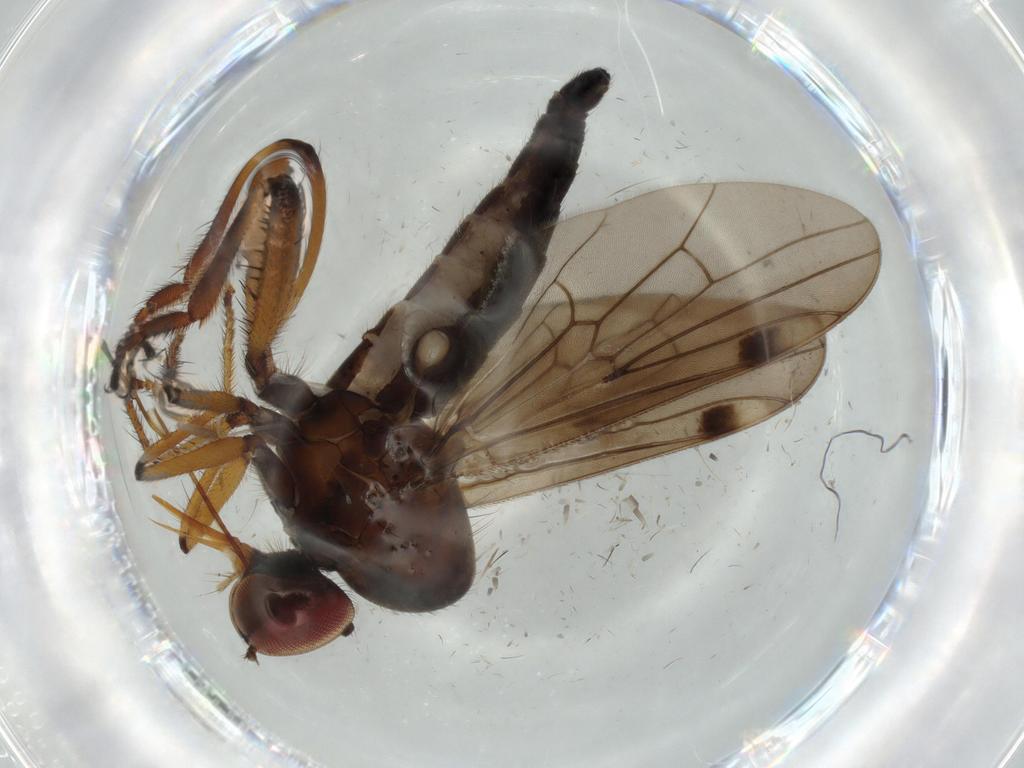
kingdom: Animalia
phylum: Arthropoda
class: Insecta
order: Diptera
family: Hybotidae
